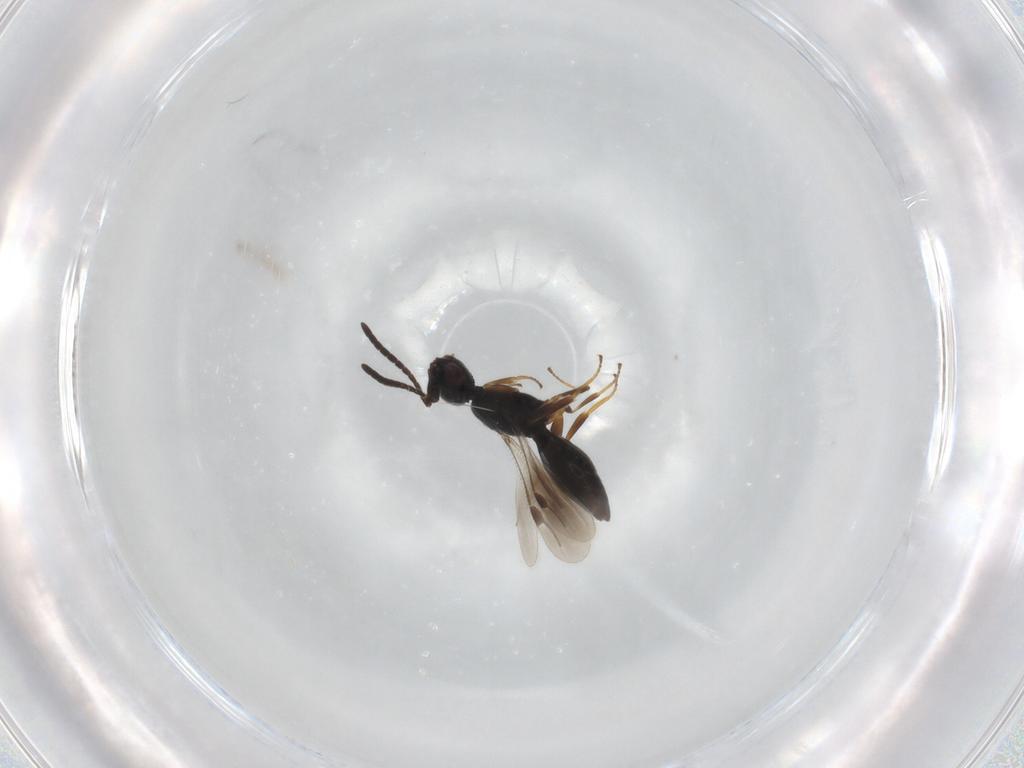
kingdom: Animalia
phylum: Arthropoda
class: Insecta
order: Hymenoptera
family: Megaspilidae
